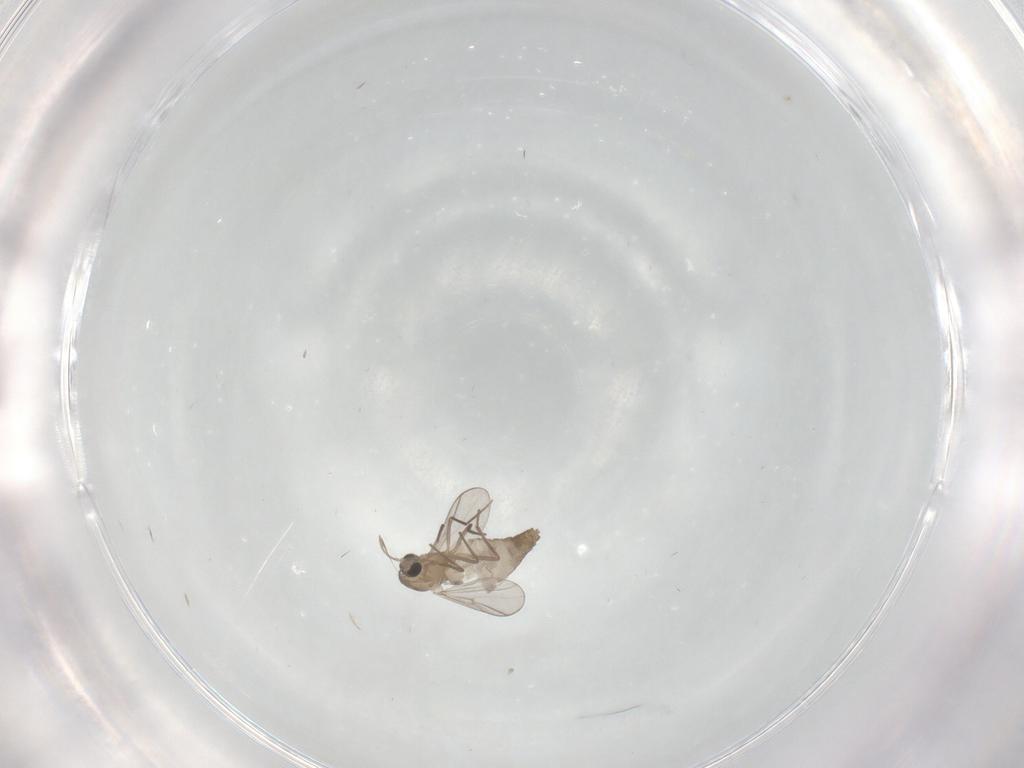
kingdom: Animalia
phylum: Arthropoda
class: Insecta
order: Diptera
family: Chironomidae
